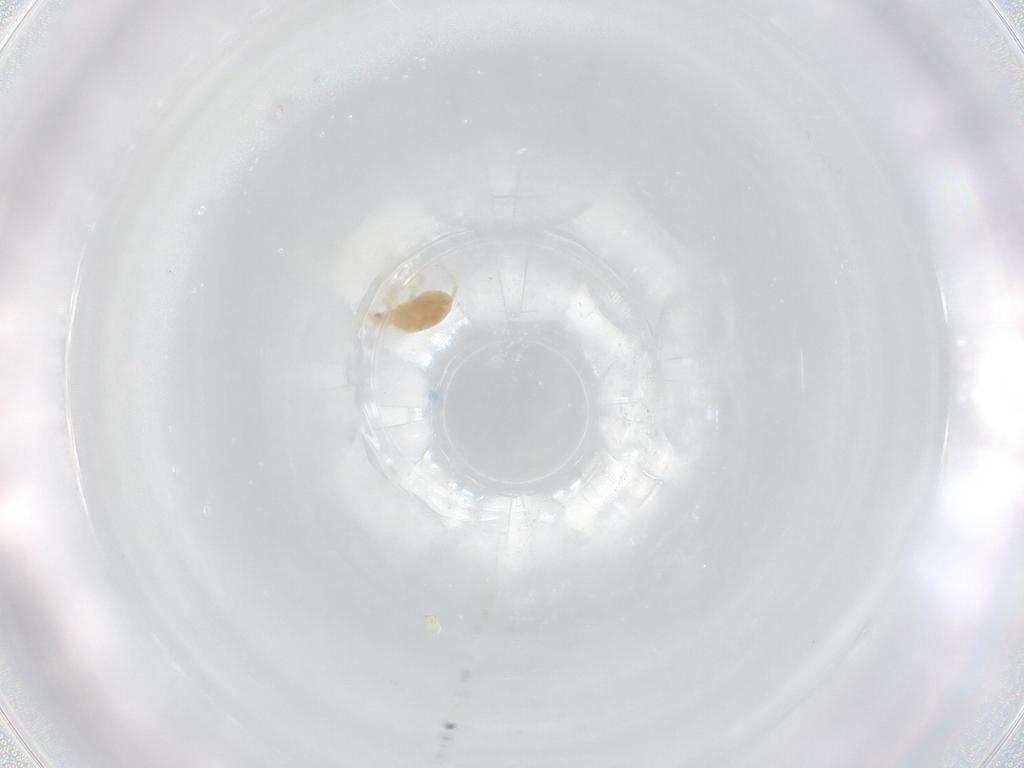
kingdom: Animalia
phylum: Arthropoda
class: Arachnida
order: Trombidiformes
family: Rhagidiidae
